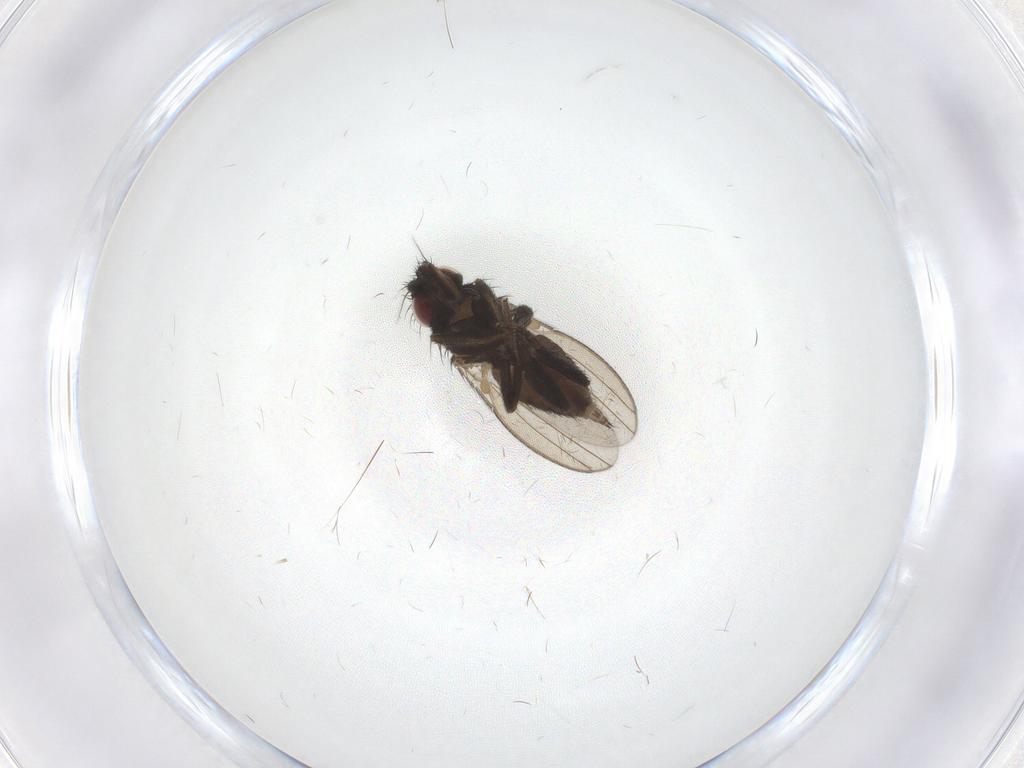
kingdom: Animalia
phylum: Arthropoda
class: Insecta
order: Diptera
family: Milichiidae
